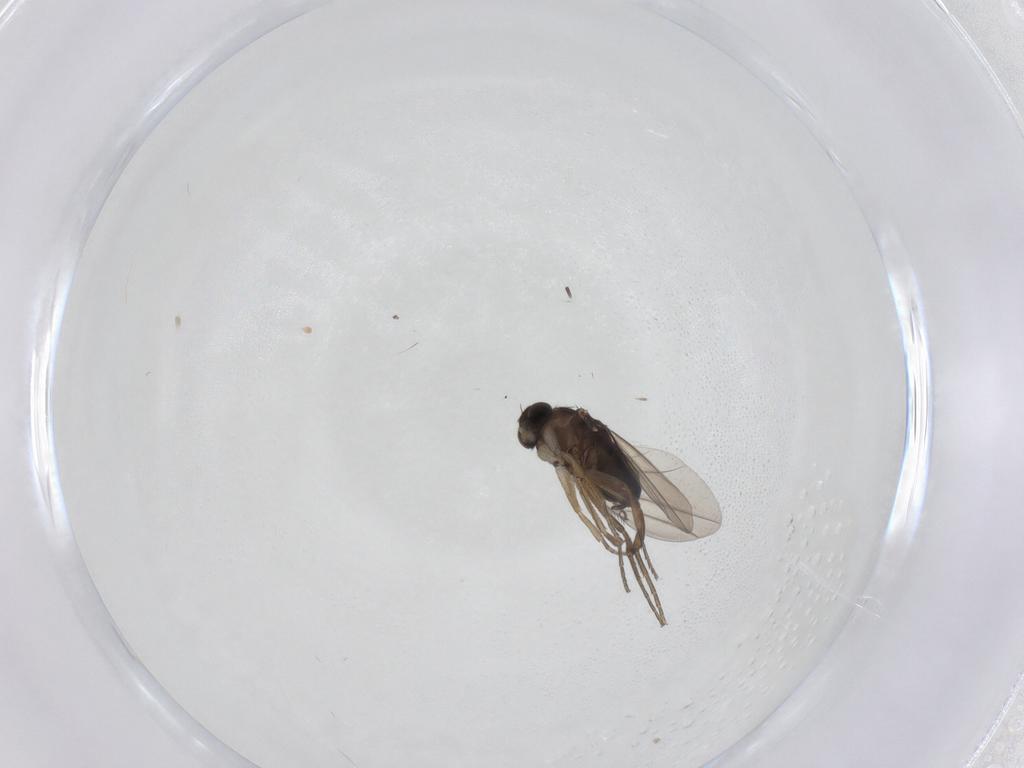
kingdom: Animalia
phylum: Arthropoda
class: Insecta
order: Diptera
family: Phoridae
